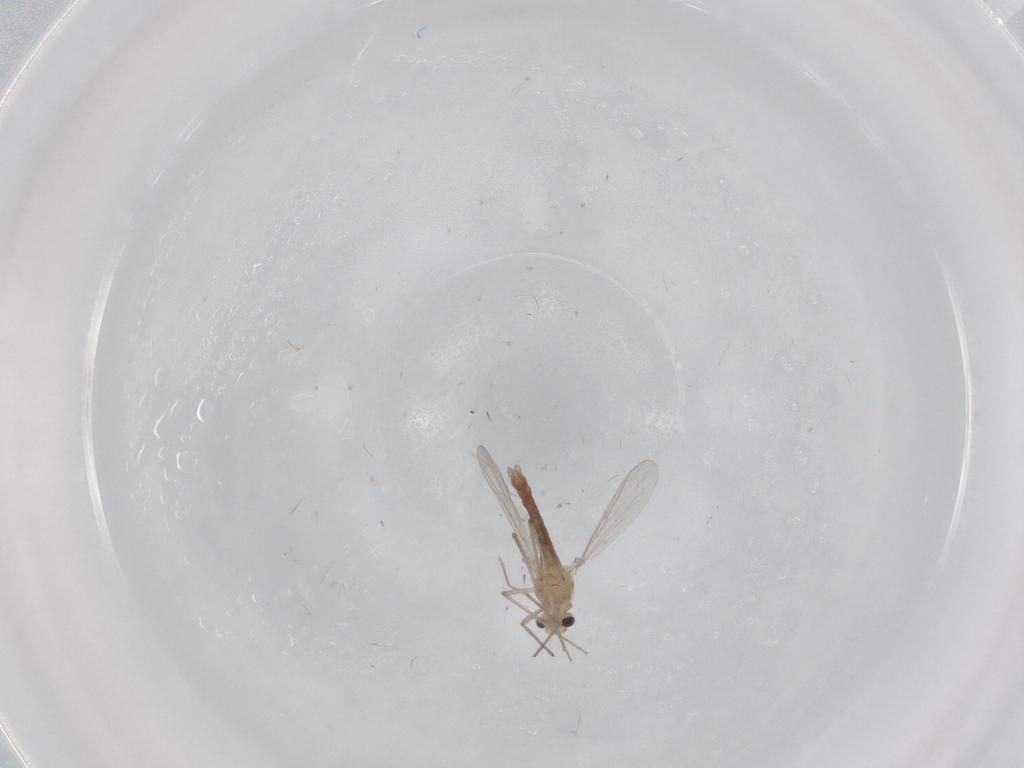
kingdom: Animalia
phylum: Arthropoda
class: Insecta
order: Diptera
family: Chironomidae
